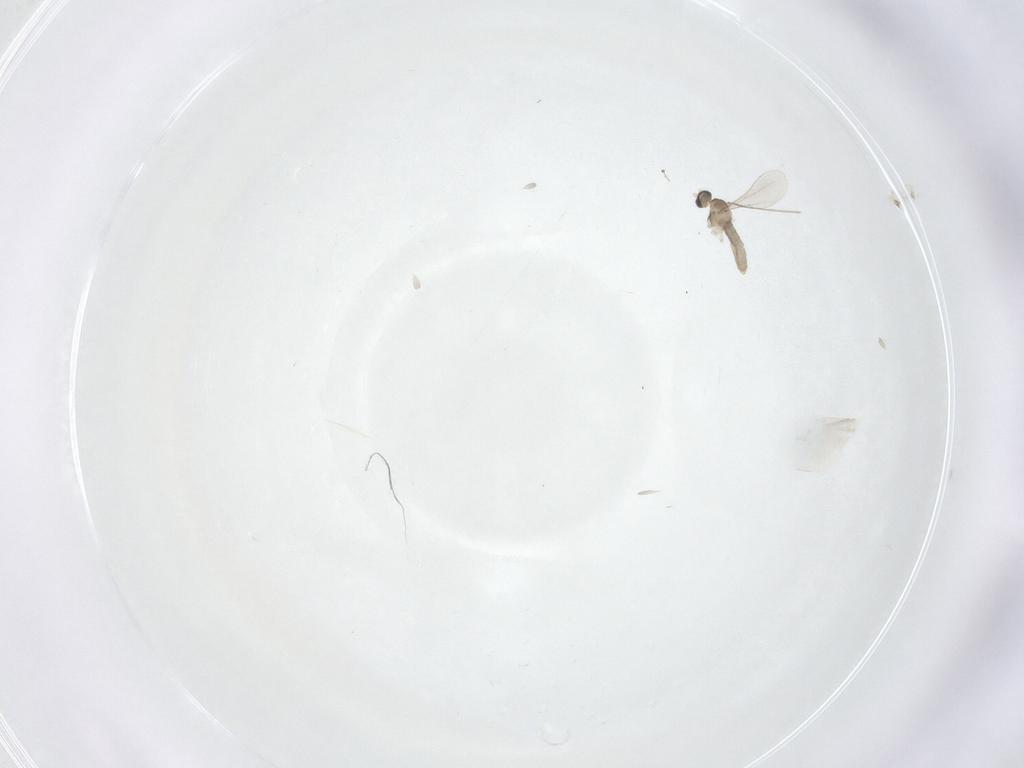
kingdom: Animalia
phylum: Arthropoda
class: Insecta
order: Diptera
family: Cecidomyiidae
